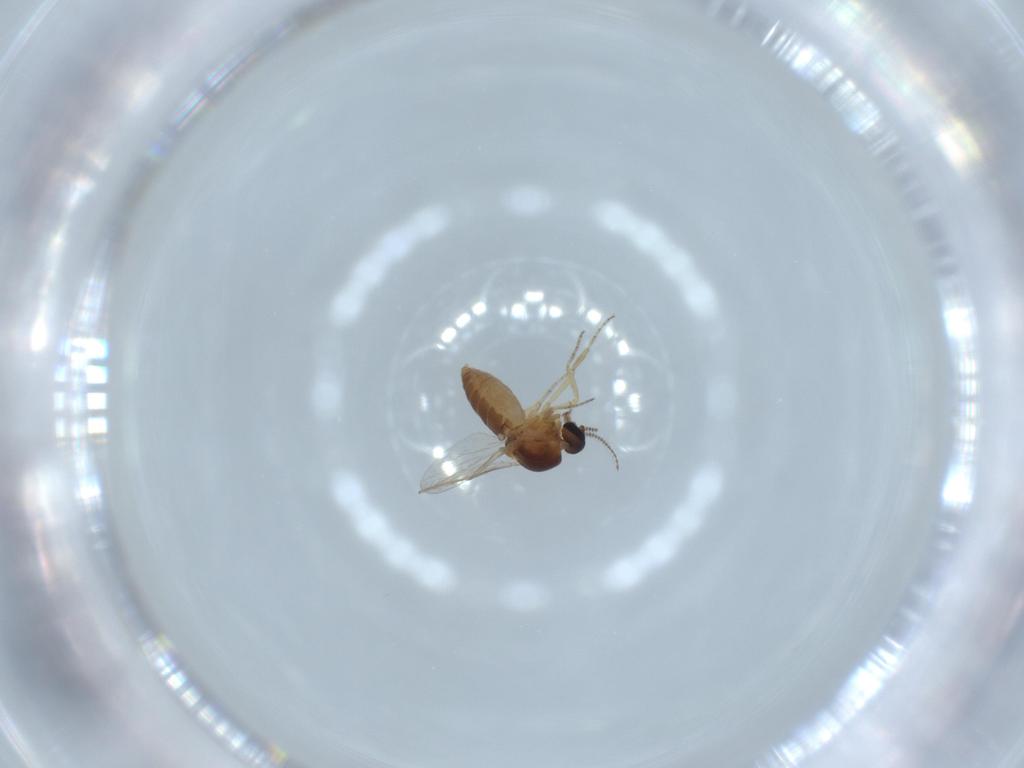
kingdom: Animalia
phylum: Arthropoda
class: Insecta
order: Diptera
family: Ceratopogonidae
